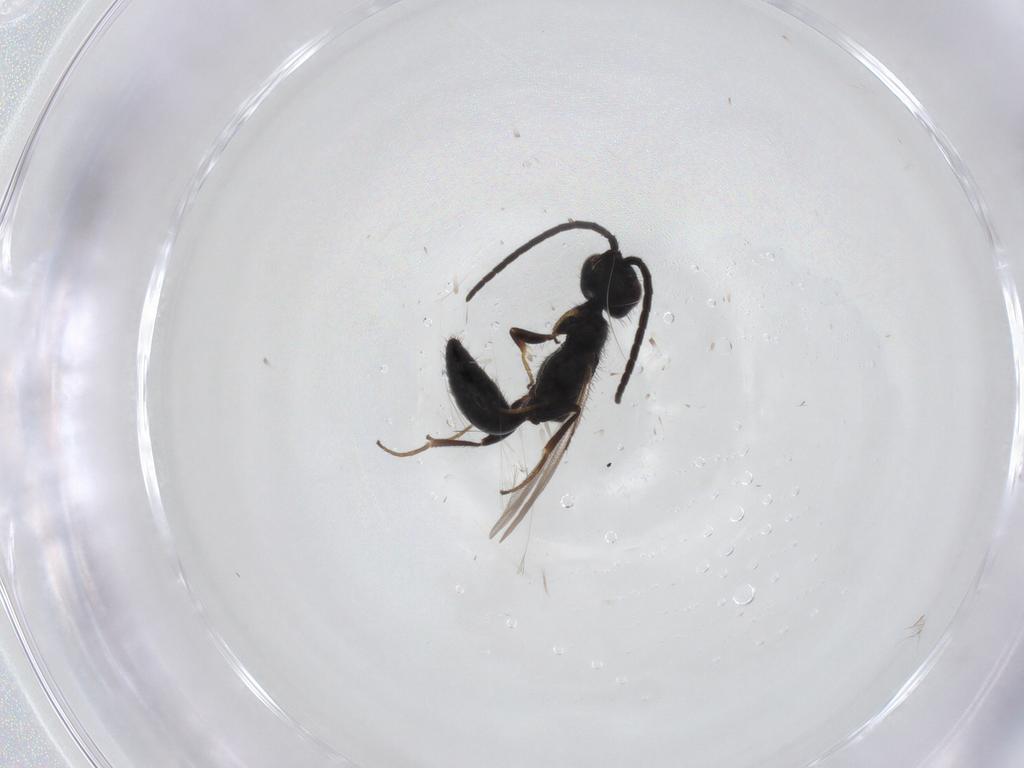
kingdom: Animalia
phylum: Arthropoda
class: Insecta
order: Hymenoptera
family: Bethylidae
